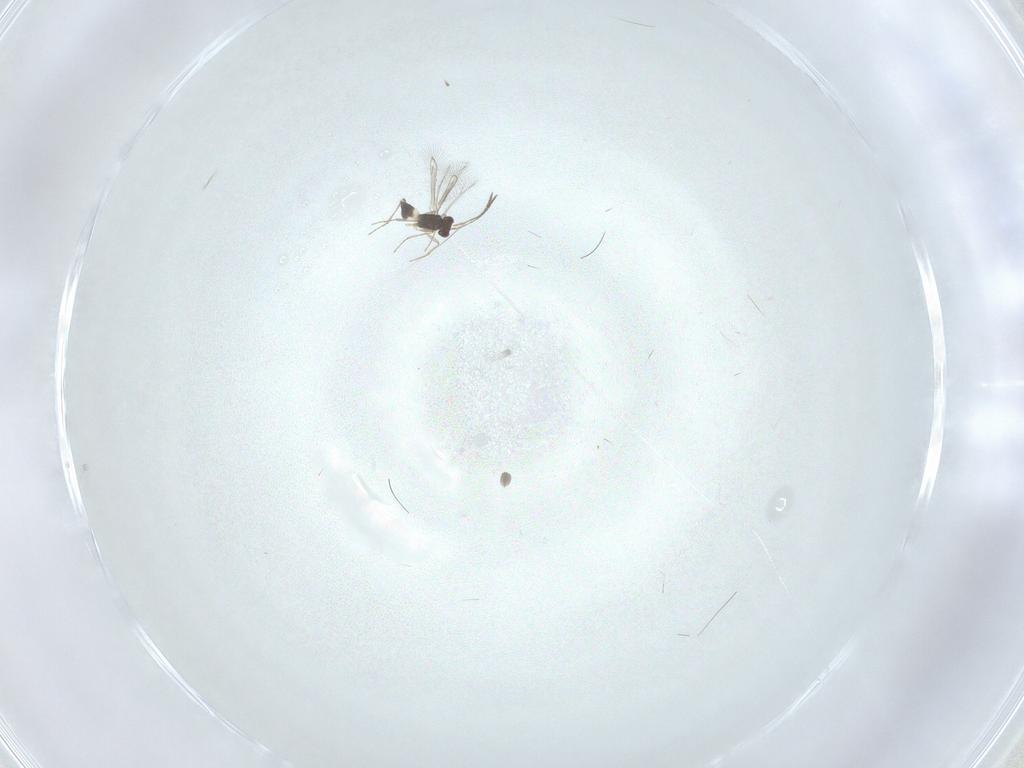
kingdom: Animalia
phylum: Arthropoda
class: Insecta
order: Hymenoptera
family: Mymaridae
